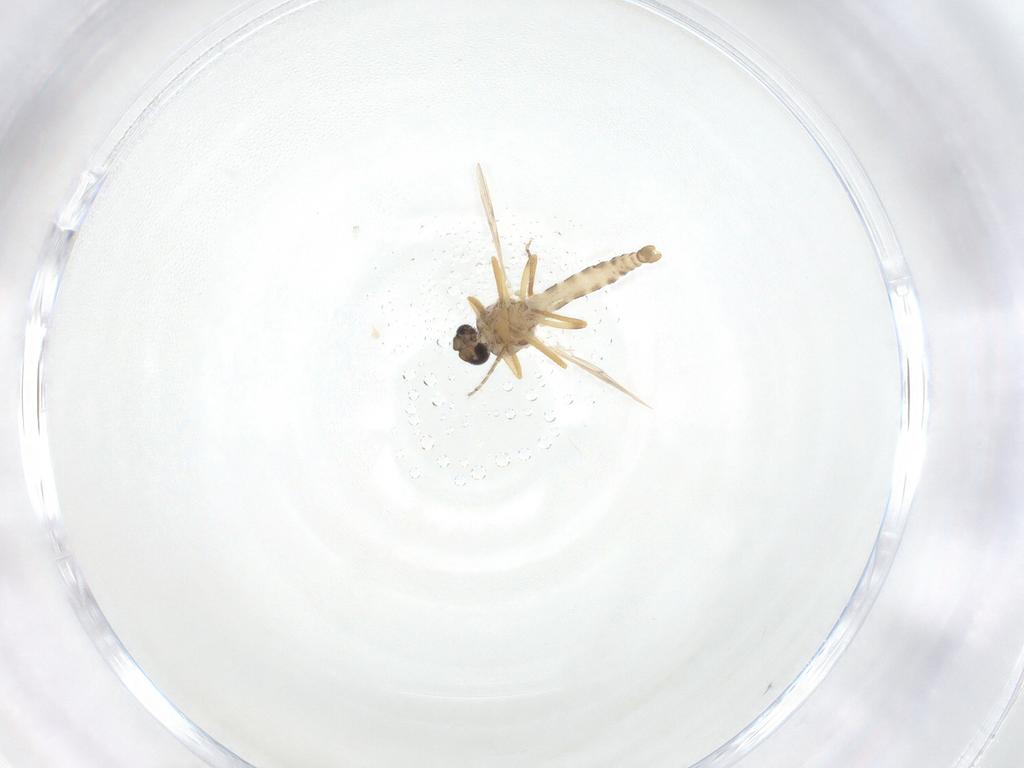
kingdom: Animalia
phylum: Arthropoda
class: Insecta
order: Diptera
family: Ceratopogonidae
